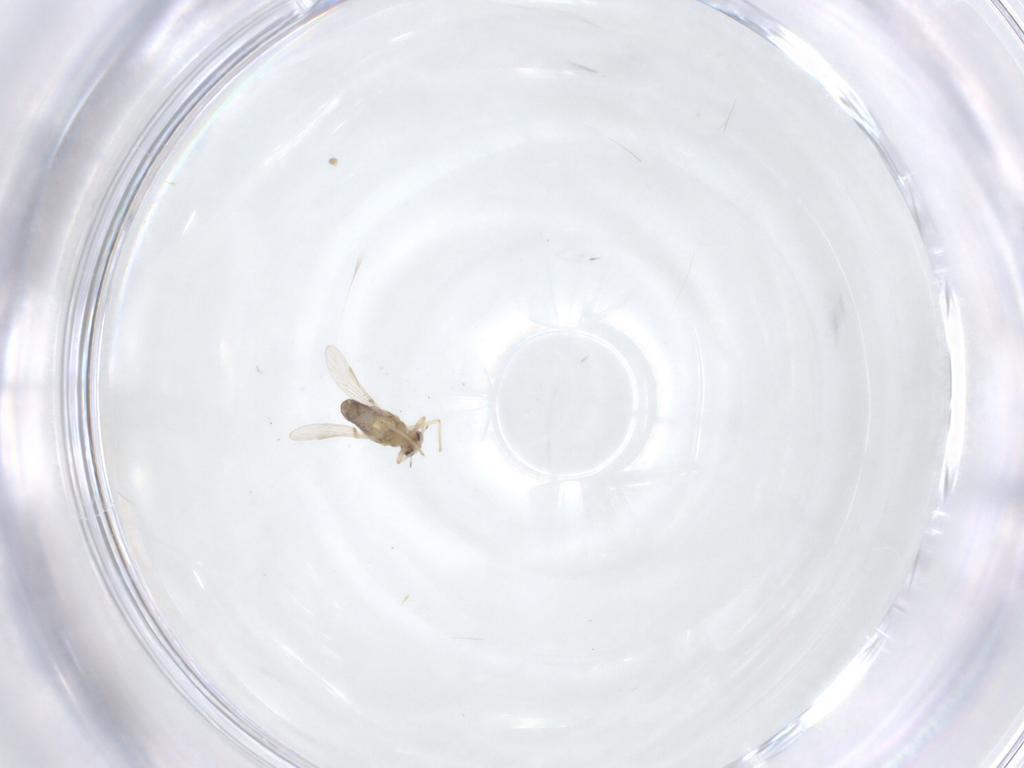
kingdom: Animalia
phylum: Arthropoda
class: Insecta
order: Diptera
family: Chironomidae
